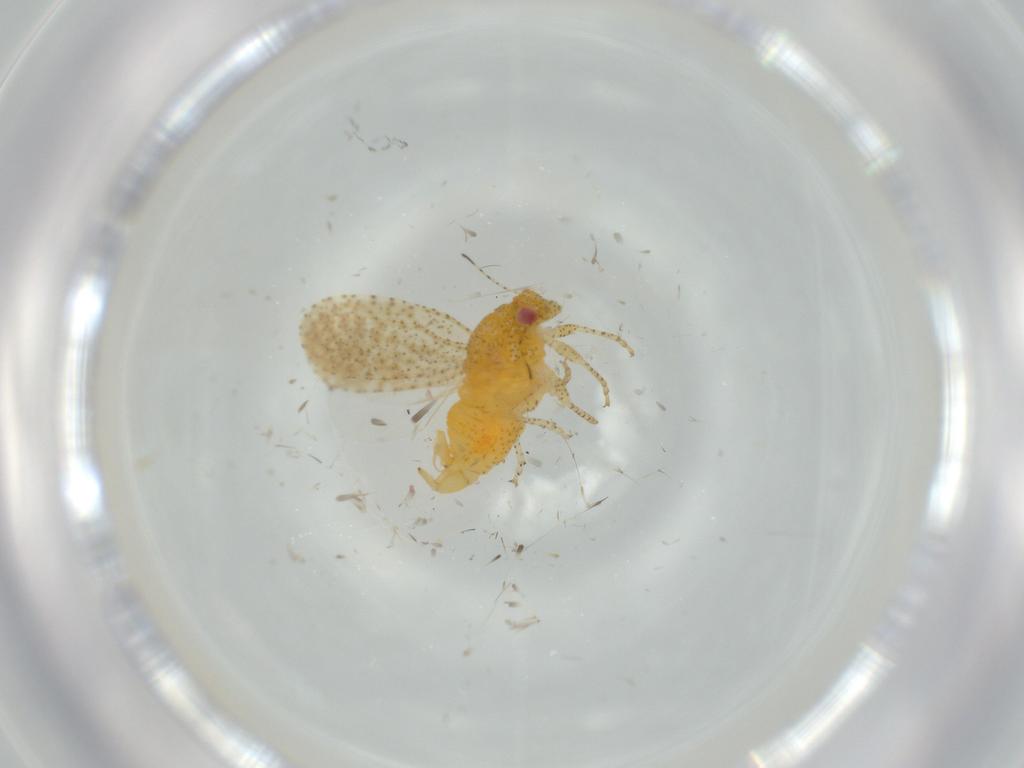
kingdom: Animalia
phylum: Arthropoda
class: Insecta
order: Hemiptera
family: Psyllidae
